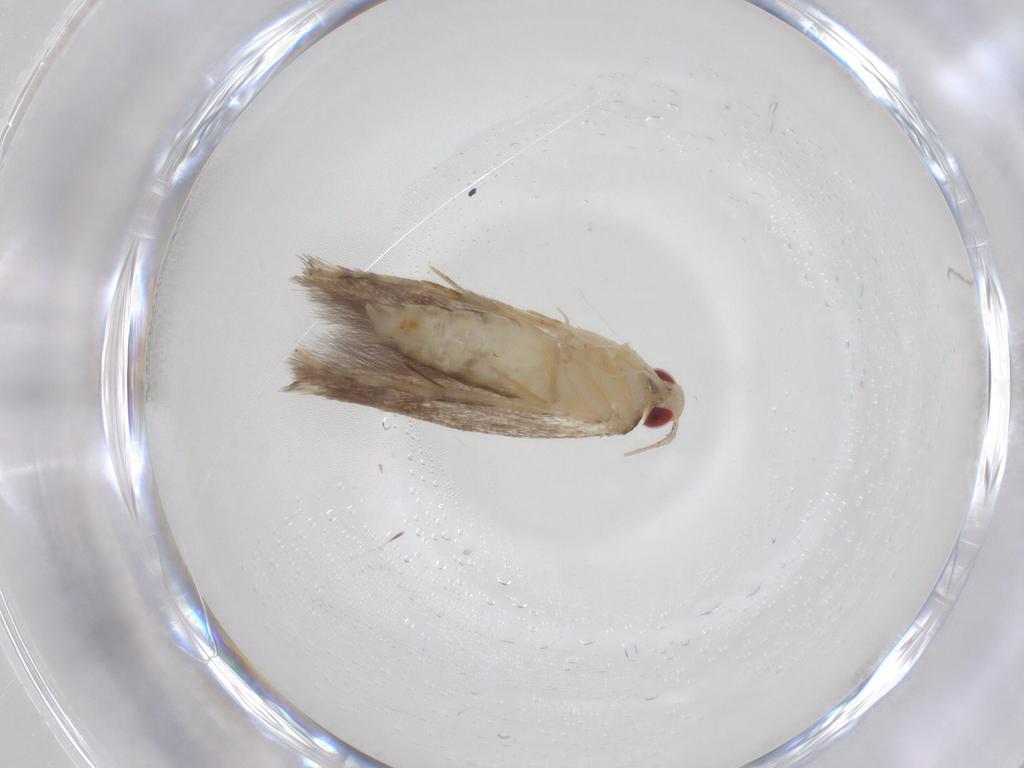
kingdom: Animalia
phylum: Arthropoda
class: Insecta
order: Lepidoptera
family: Cosmopterigidae
